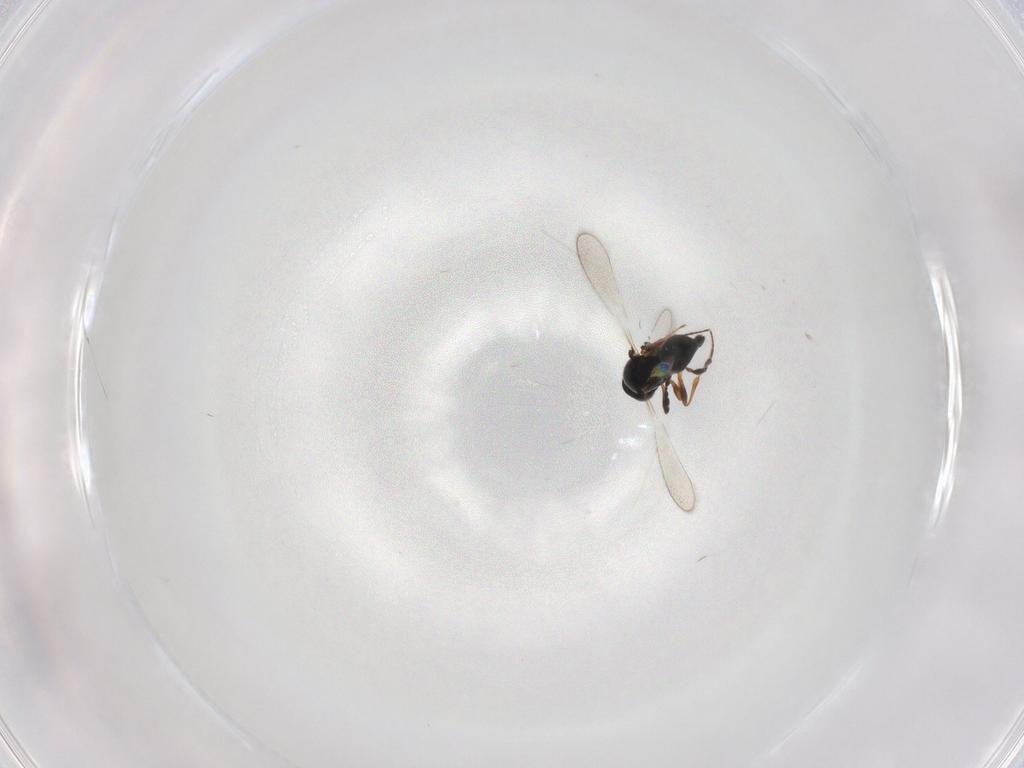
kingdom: Animalia
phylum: Arthropoda
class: Insecta
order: Hymenoptera
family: Platygastridae
